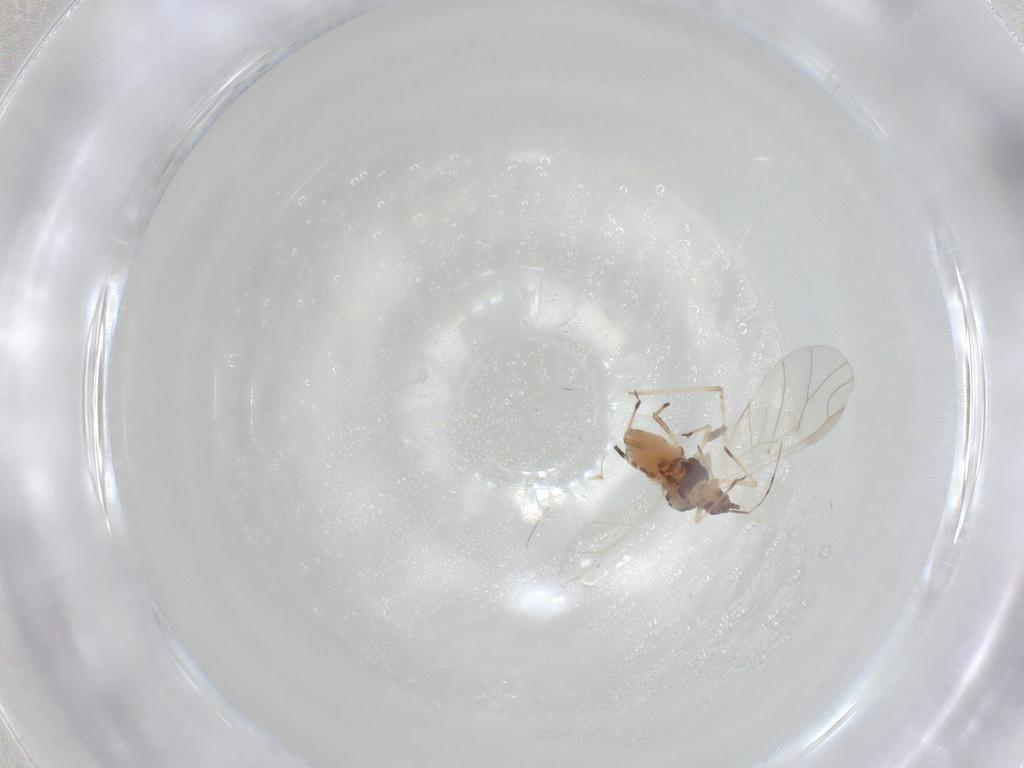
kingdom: Animalia
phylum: Arthropoda
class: Insecta
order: Hemiptera
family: Aphididae
